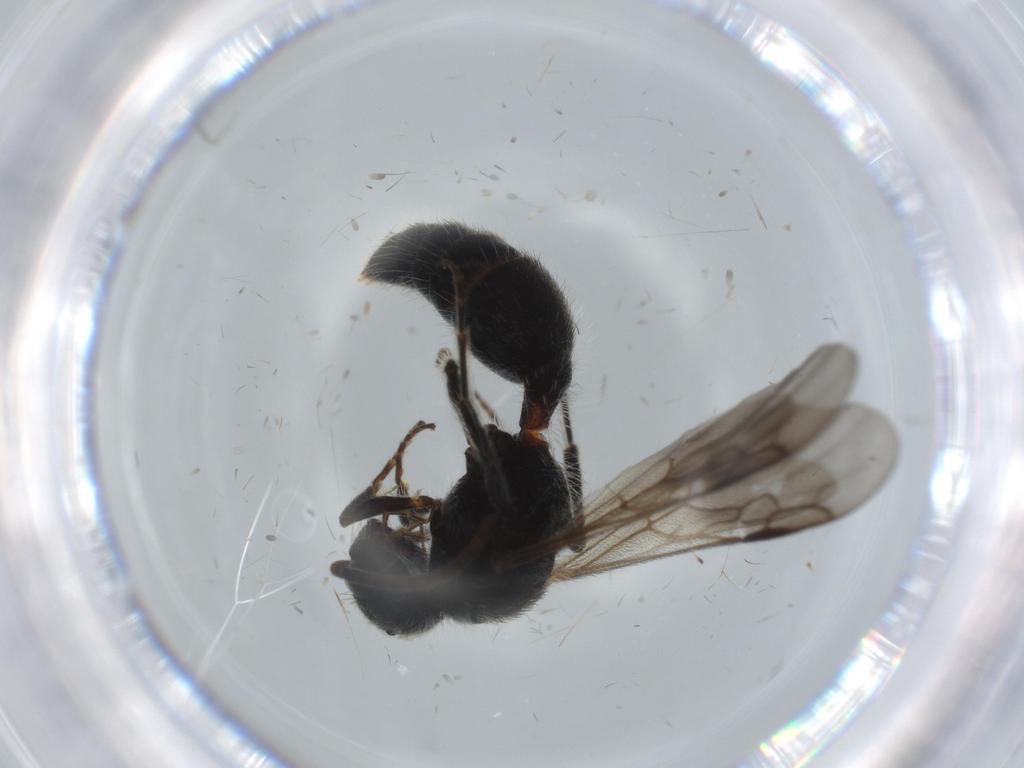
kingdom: Animalia
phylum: Arthropoda
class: Insecta
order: Hymenoptera
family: Mutillidae
